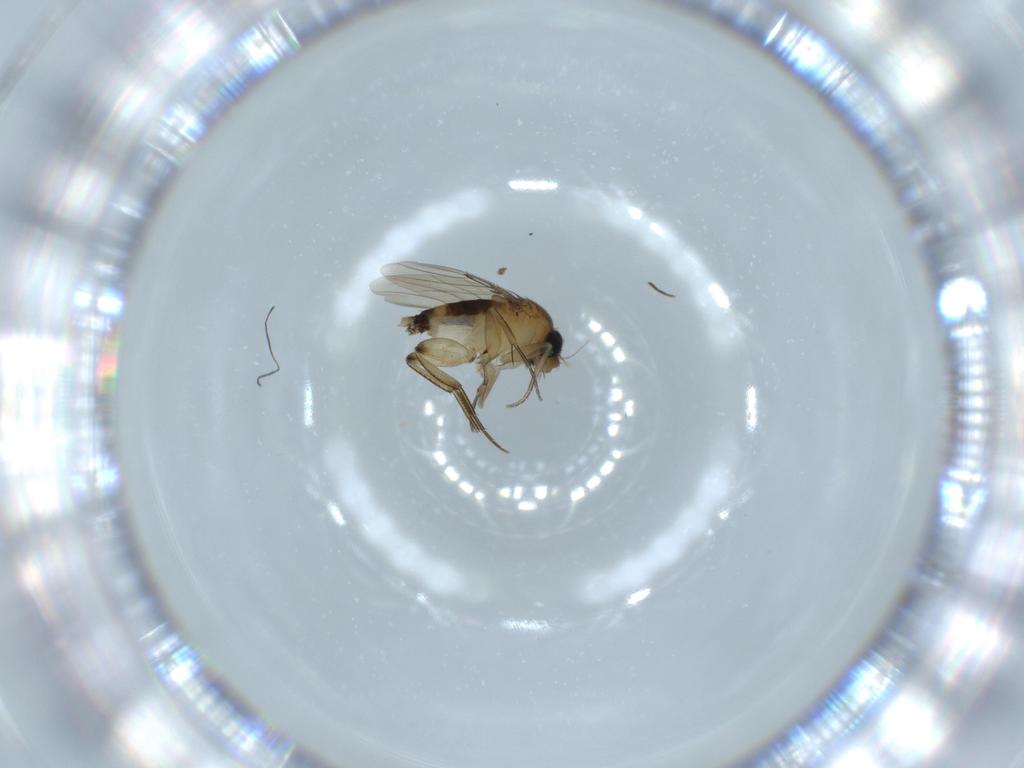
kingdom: Animalia
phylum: Arthropoda
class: Insecta
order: Diptera
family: Phoridae
